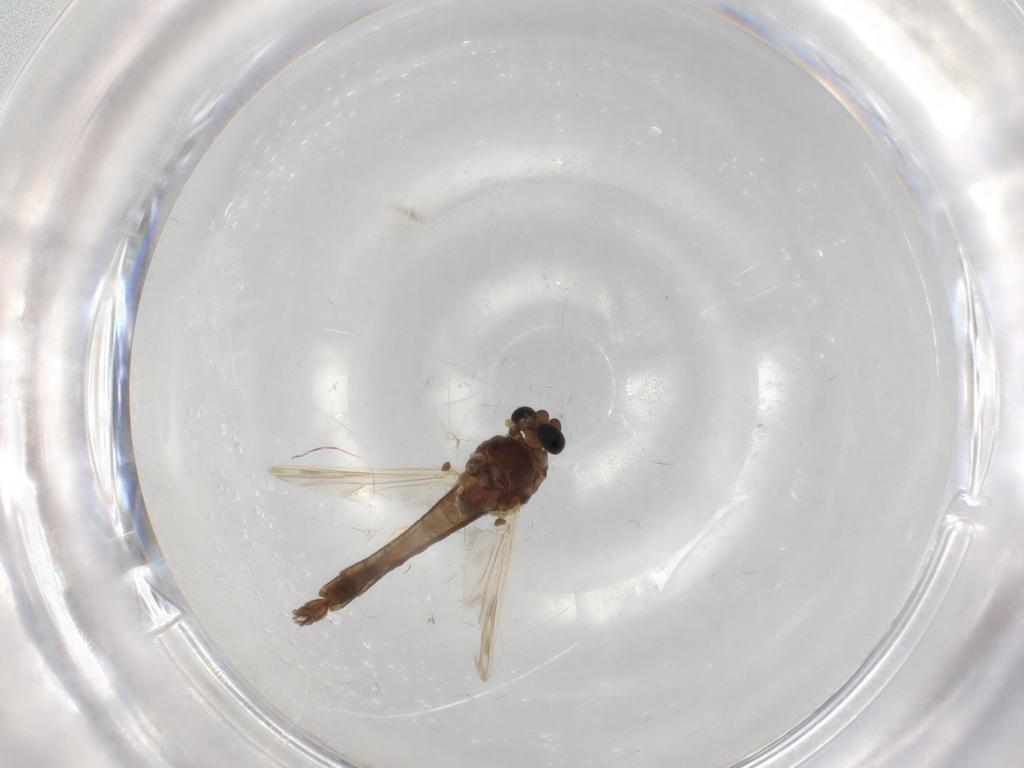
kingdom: Animalia
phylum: Arthropoda
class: Insecta
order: Diptera
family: Chironomidae
